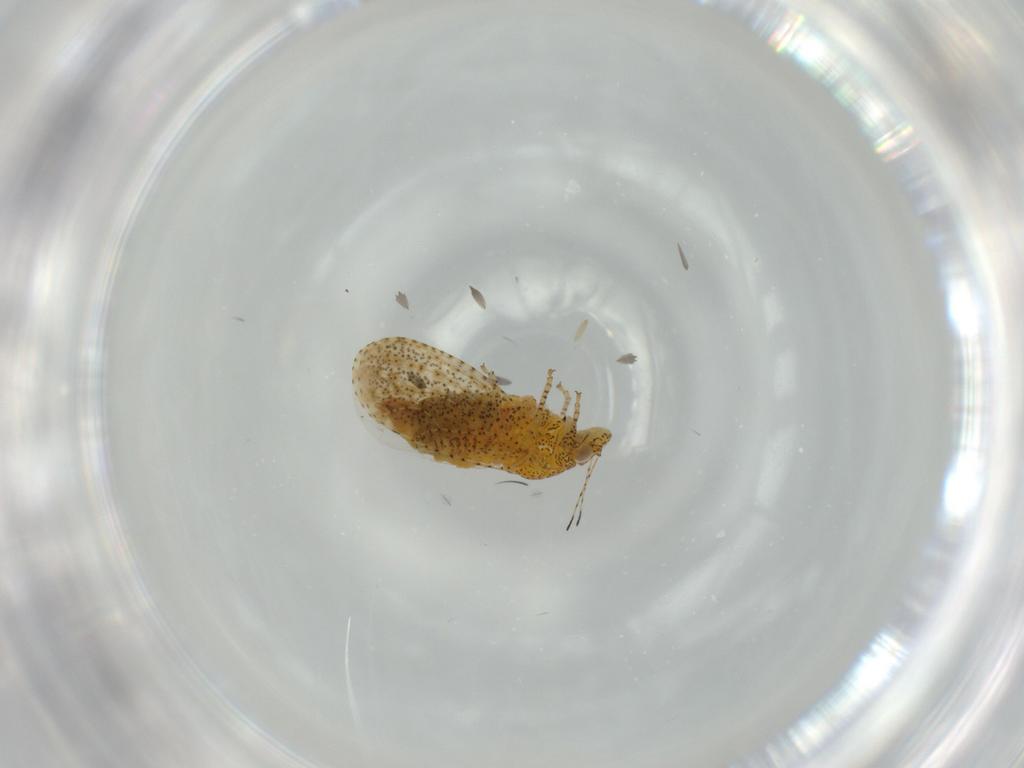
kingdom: Animalia
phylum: Arthropoda
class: Insecta
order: Hemiptera
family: Psyllidae
